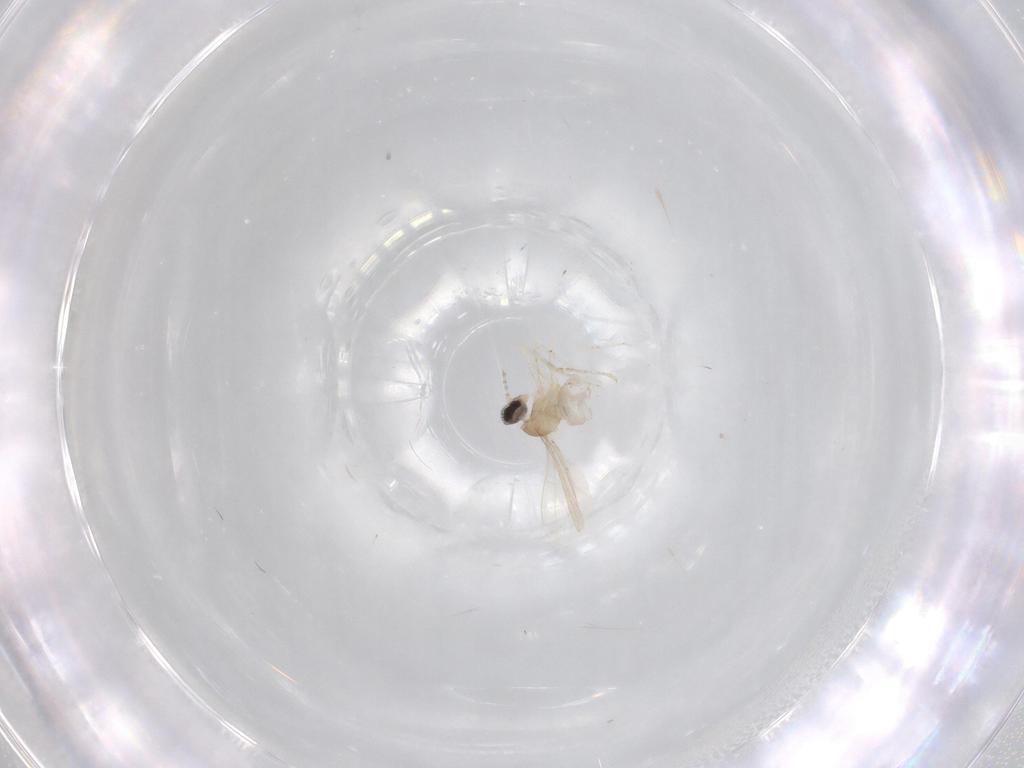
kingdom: Animalia
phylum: Arthropoda
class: Insecta
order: Diptera
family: Cecidomyiidae
